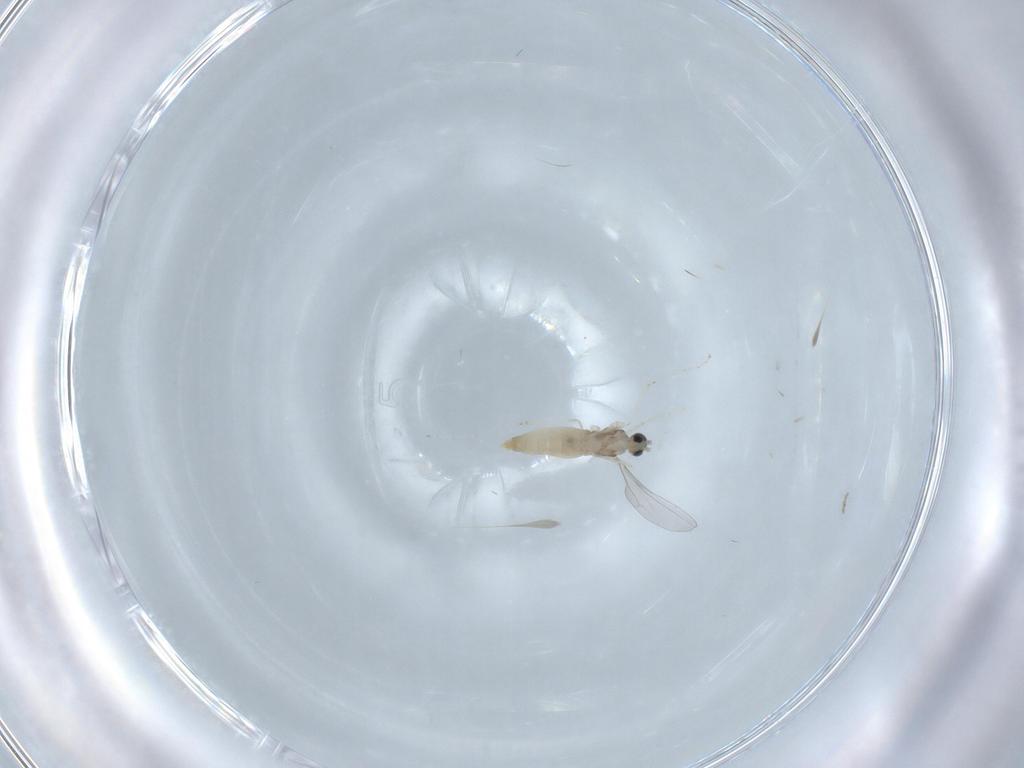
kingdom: Animalia
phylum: Arthropoda
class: Insecta
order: Diptera
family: Cecidomyiidae
